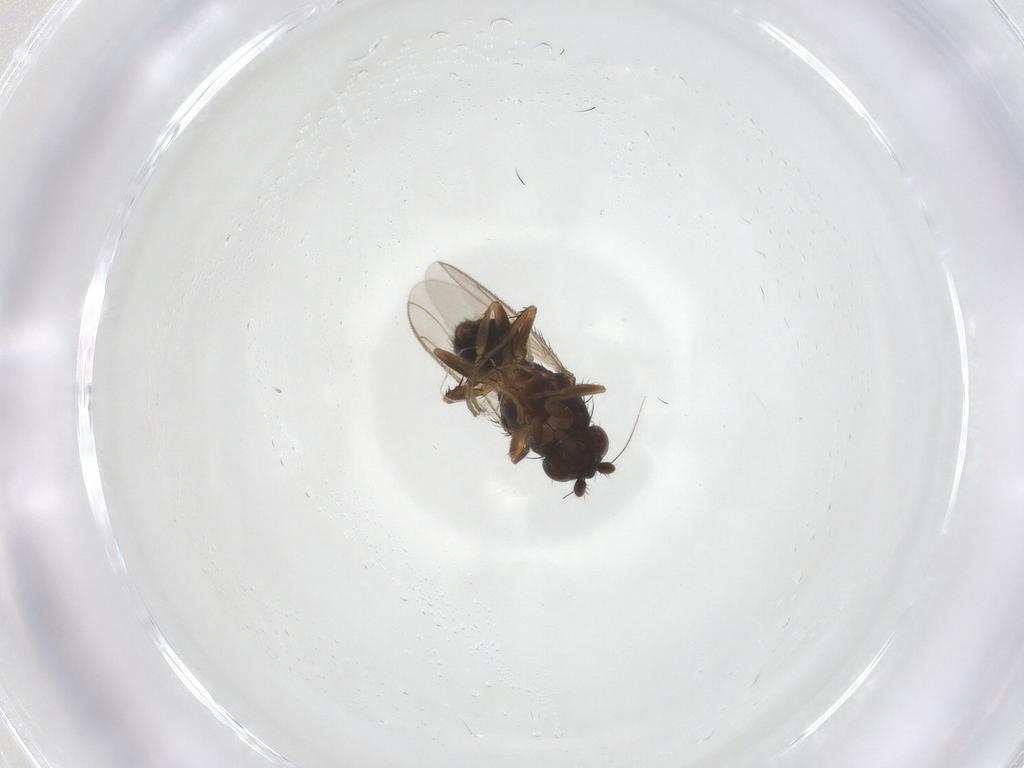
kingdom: Animalia
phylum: Arthropoda
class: Insecta
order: Diptera
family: Sphaeroceridae
